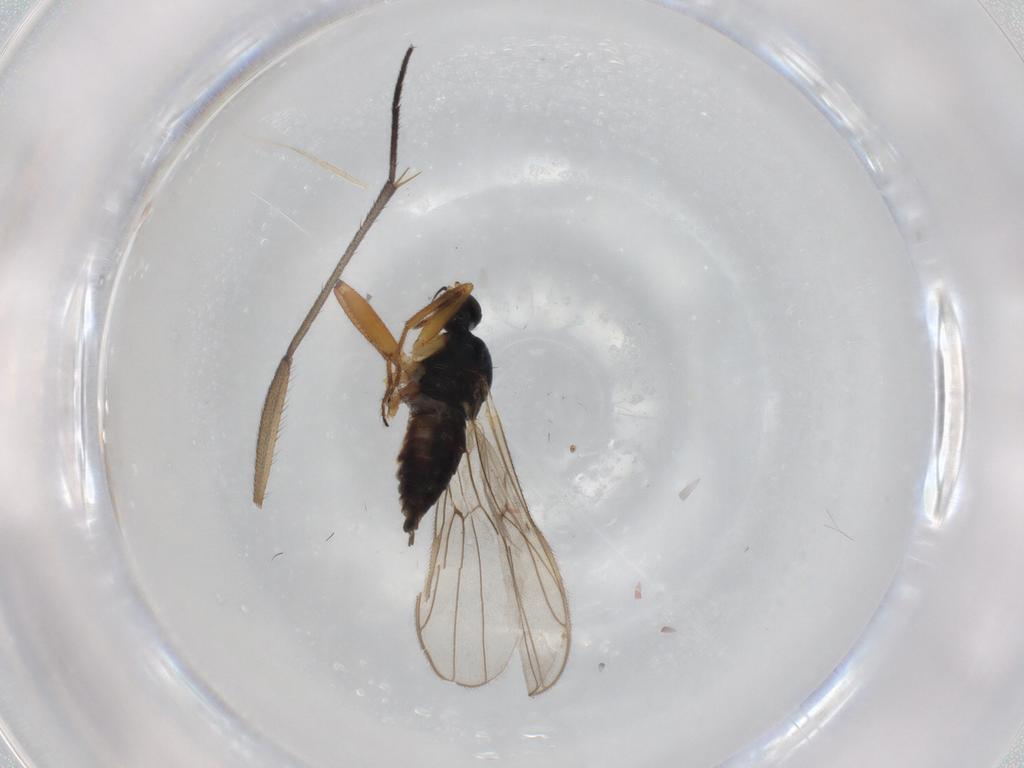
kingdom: Animalia
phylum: Arthropoda
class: Insecta
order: Diptera
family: Hybotidae
